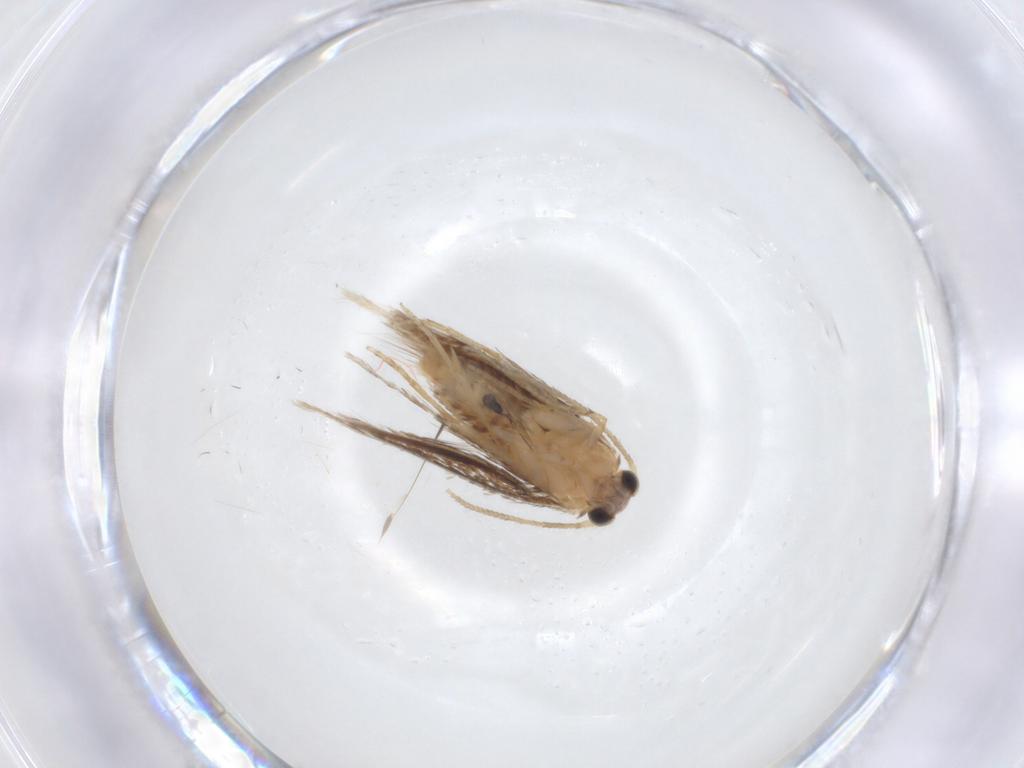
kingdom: Animalia
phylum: Arthropoda
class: Insecta
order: Lepidoptera
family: Nepticulidae
